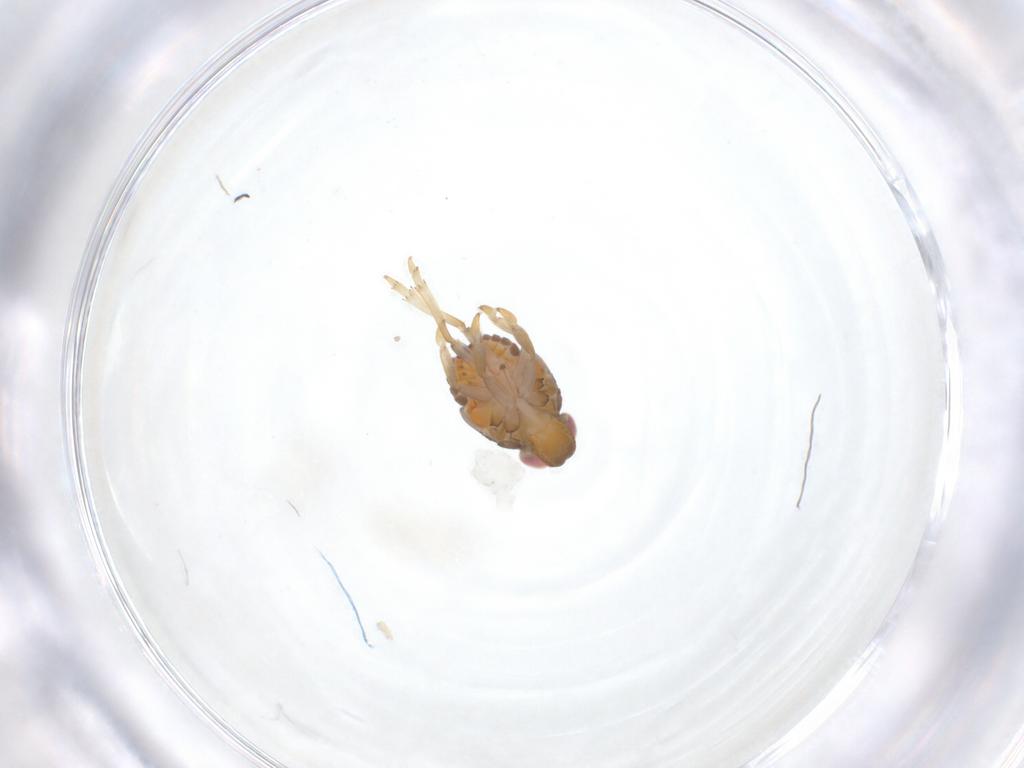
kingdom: Animalia
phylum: Arthropoda
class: Insecta
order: Hemiptera
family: Issidae
